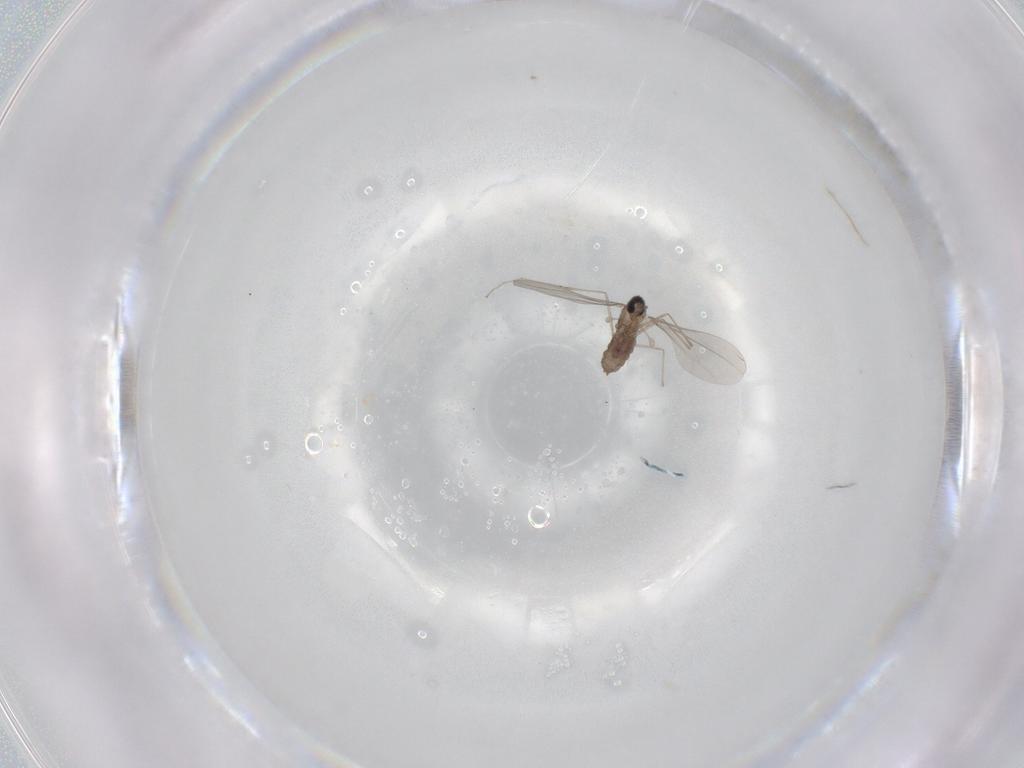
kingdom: Animalia
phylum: Arthropoda
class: Insecta
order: Diptera
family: Cecidomyiidae
